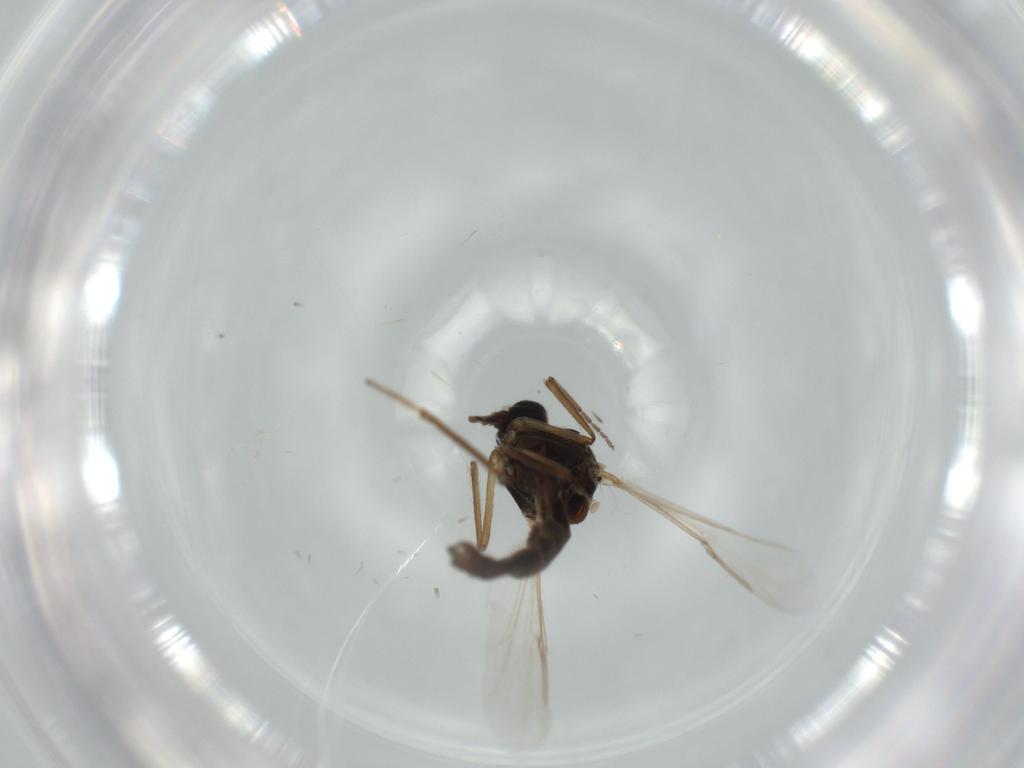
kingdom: Animalia
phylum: Arthropoda
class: Insecta
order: Diptera
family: Ceratopogonidae
